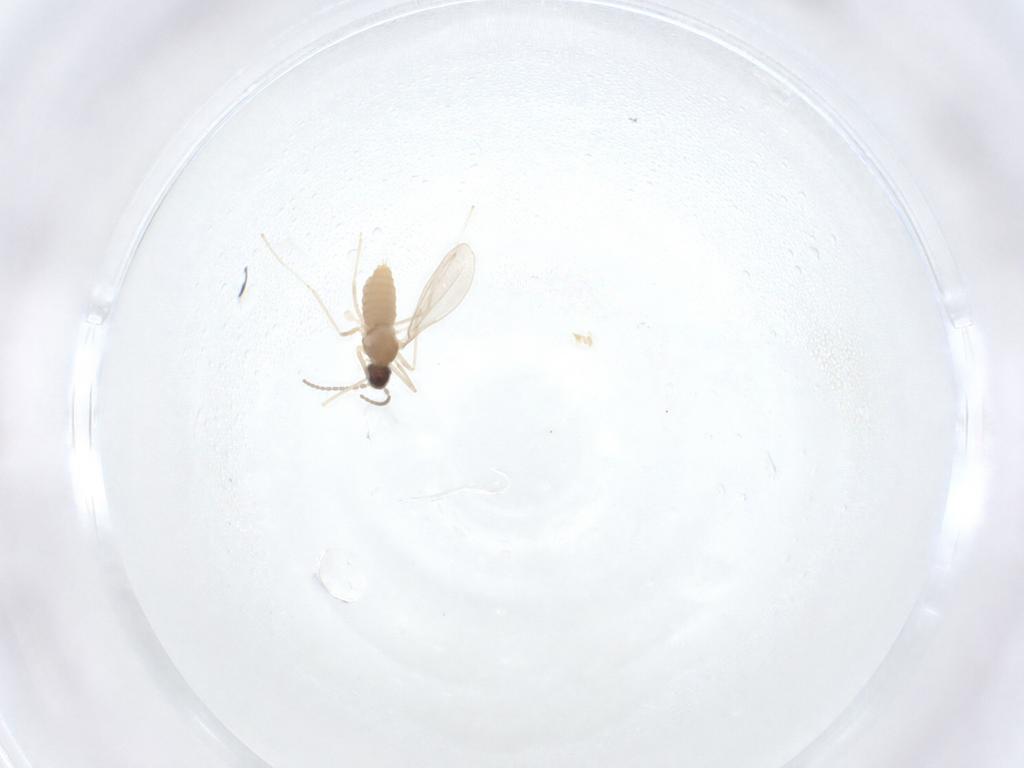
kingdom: Animalia
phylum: Arthropoda
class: Insecta
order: Diptera
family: Cecidomyiidae
